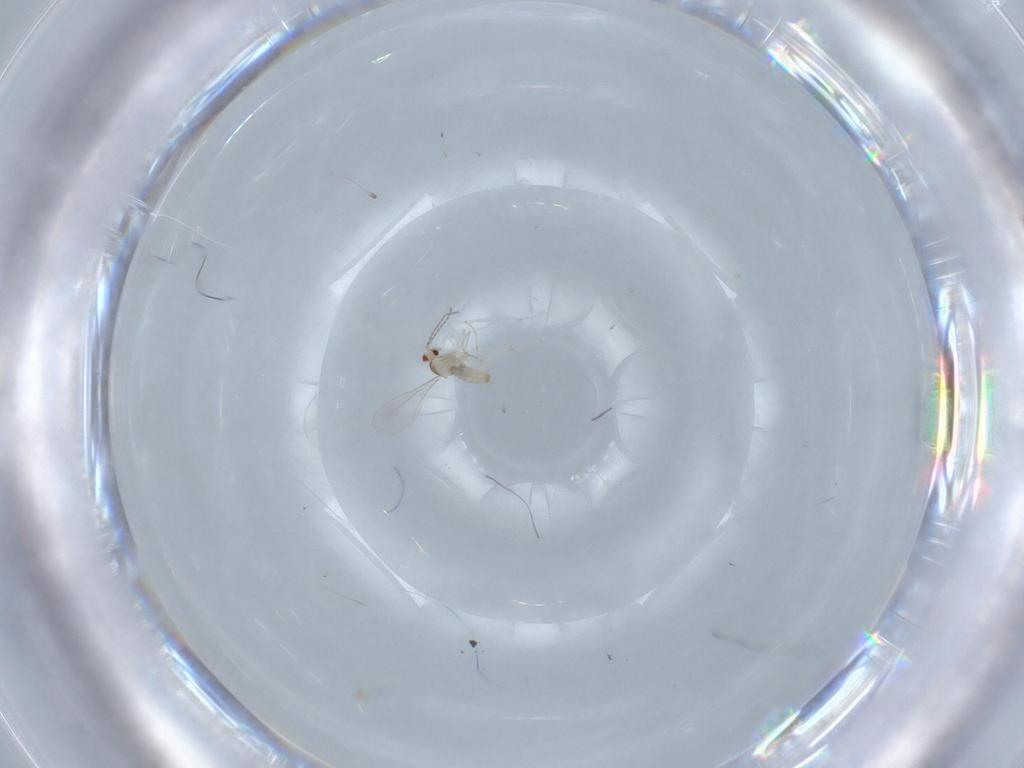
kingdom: Animalia
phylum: Arthropoda
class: Insecta
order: Diptera
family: Cecidomyiidae
